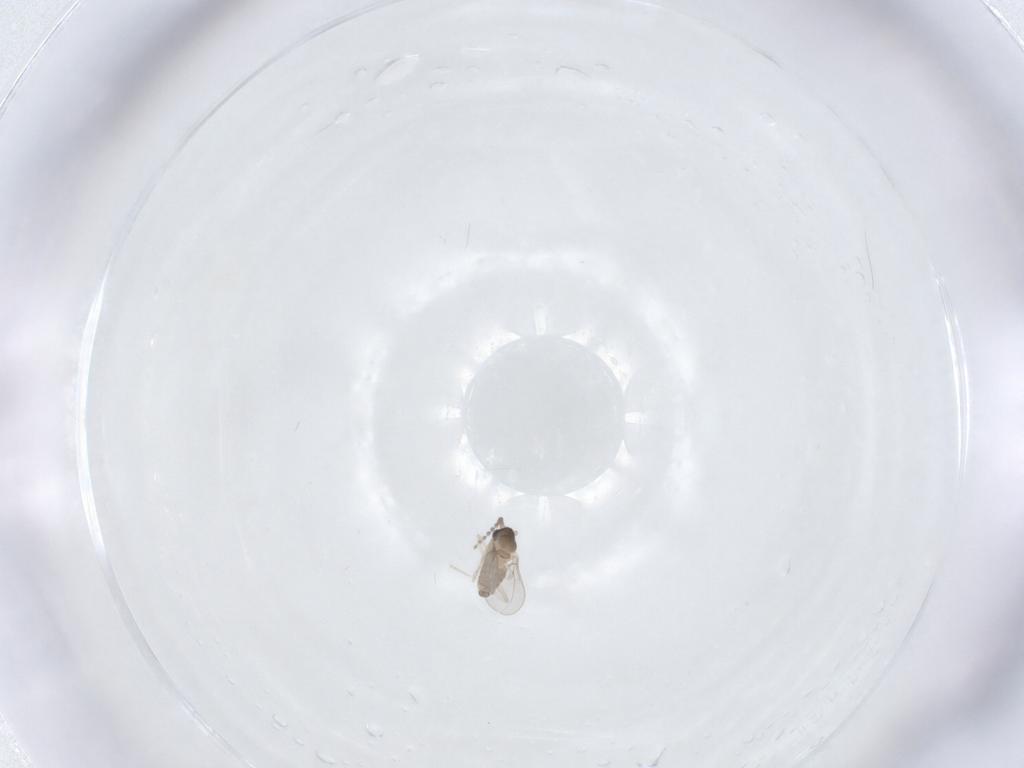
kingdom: Animalia
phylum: Arthropoda
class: Insecta
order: Diptera
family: Cecidomyiidae
